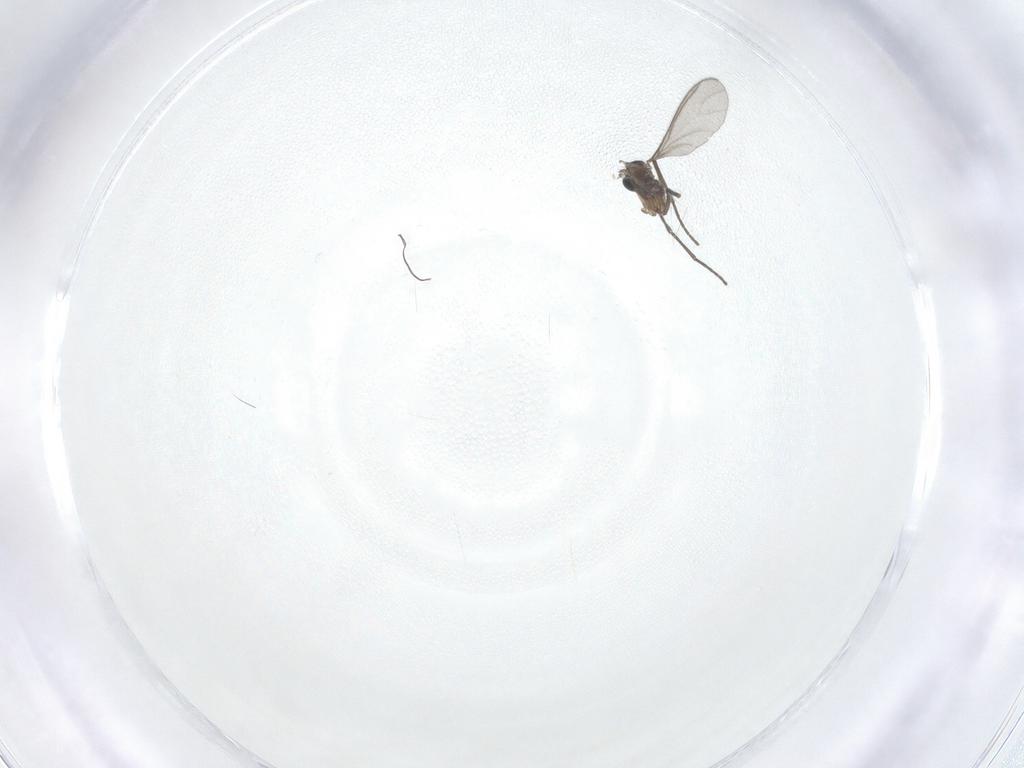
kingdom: Animalia
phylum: Arthropoda
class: Insecta
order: Diptera
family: Sciaridae
